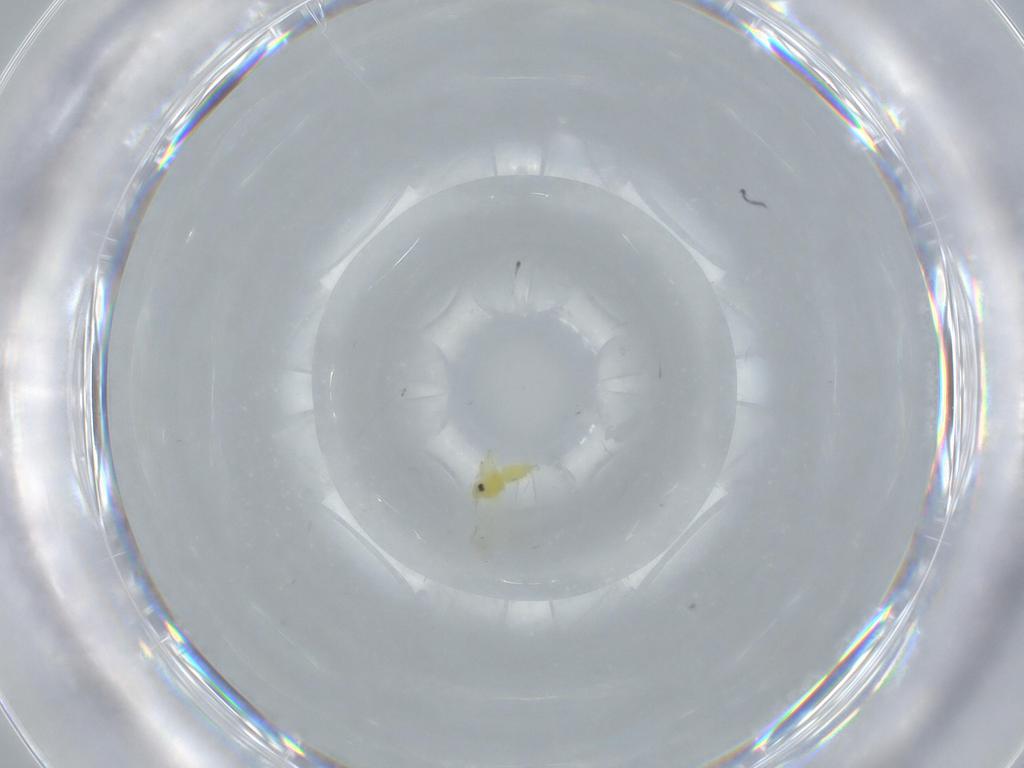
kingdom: Animalia
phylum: Arthropoda
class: Insecta
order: Hemiptera
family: Aleyrodidae
